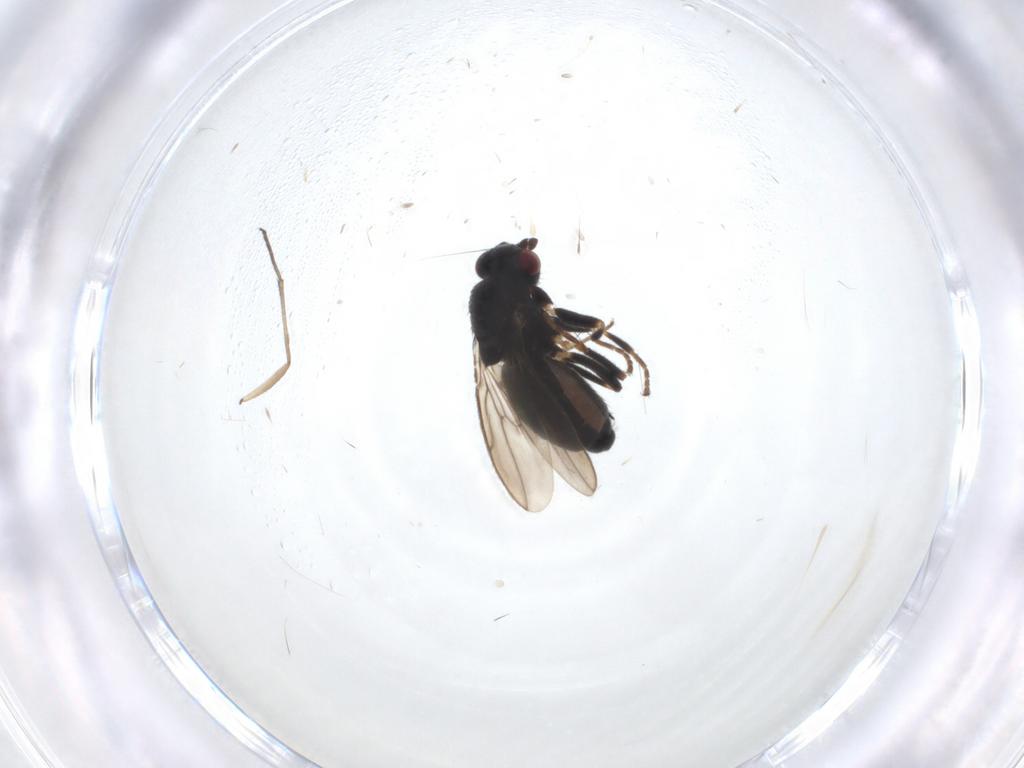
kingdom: Animalia
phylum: Arthropoda
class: Insecta
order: Diptera
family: Sphaeroceridae
